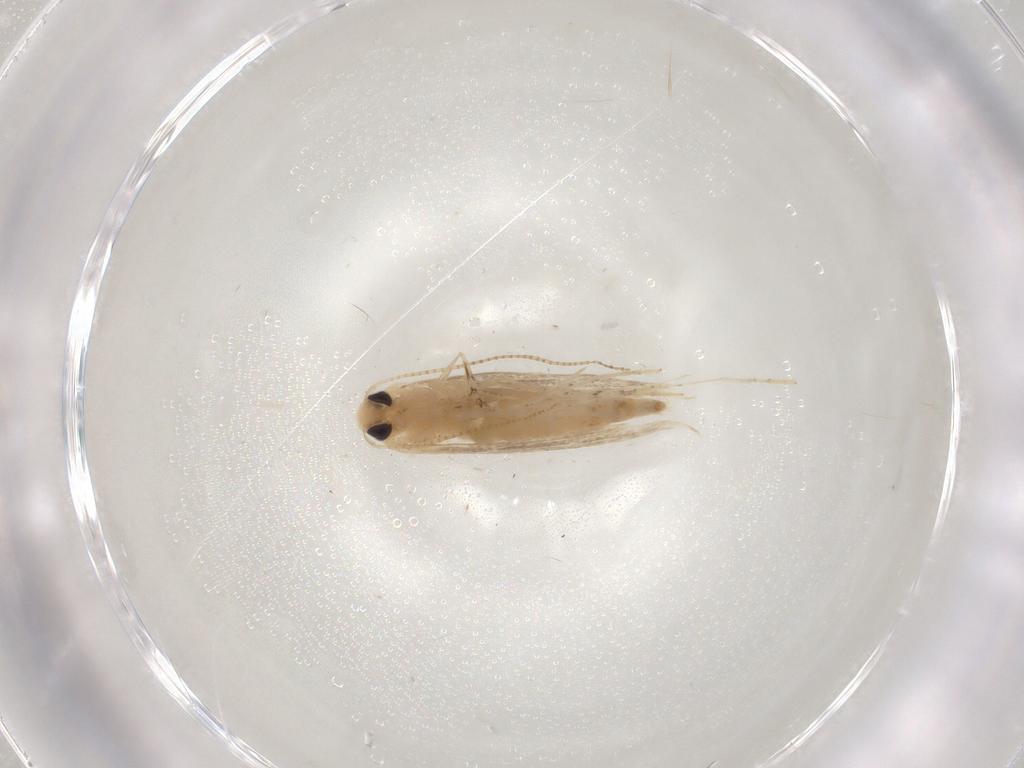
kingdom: Animalia
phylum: Arthropoda
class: Insecta
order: Lepidoptera
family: Gracillariidae
